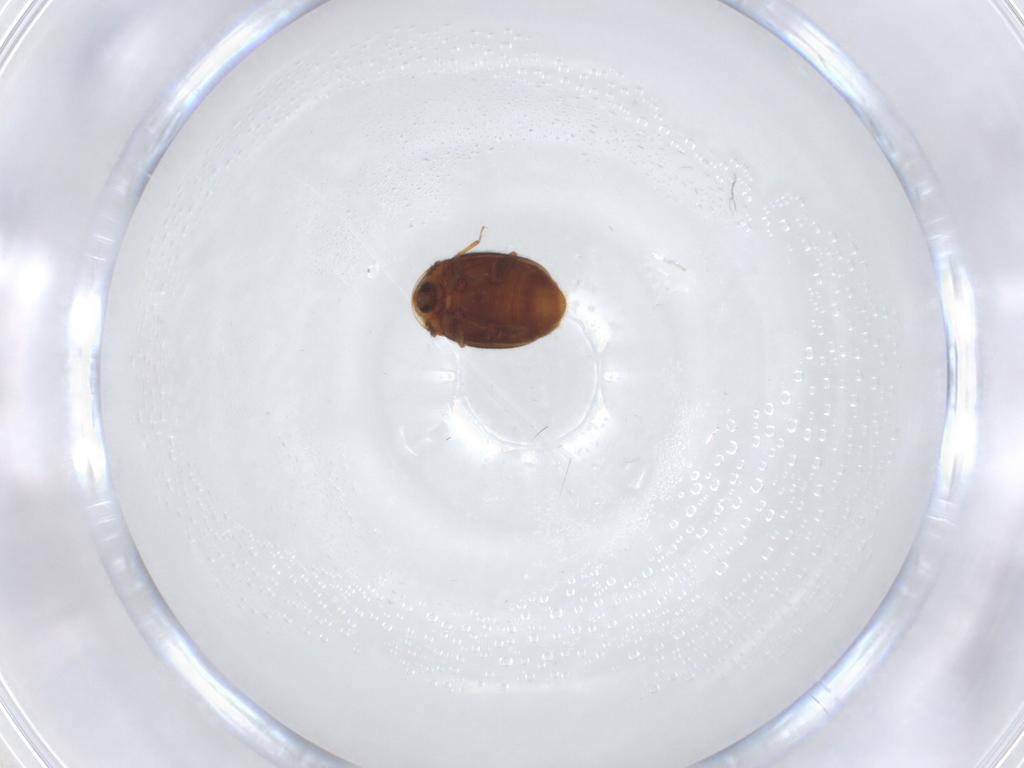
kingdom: Animalia
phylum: Arthropoda
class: Insecta
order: Coleoptera
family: Corylophidae
